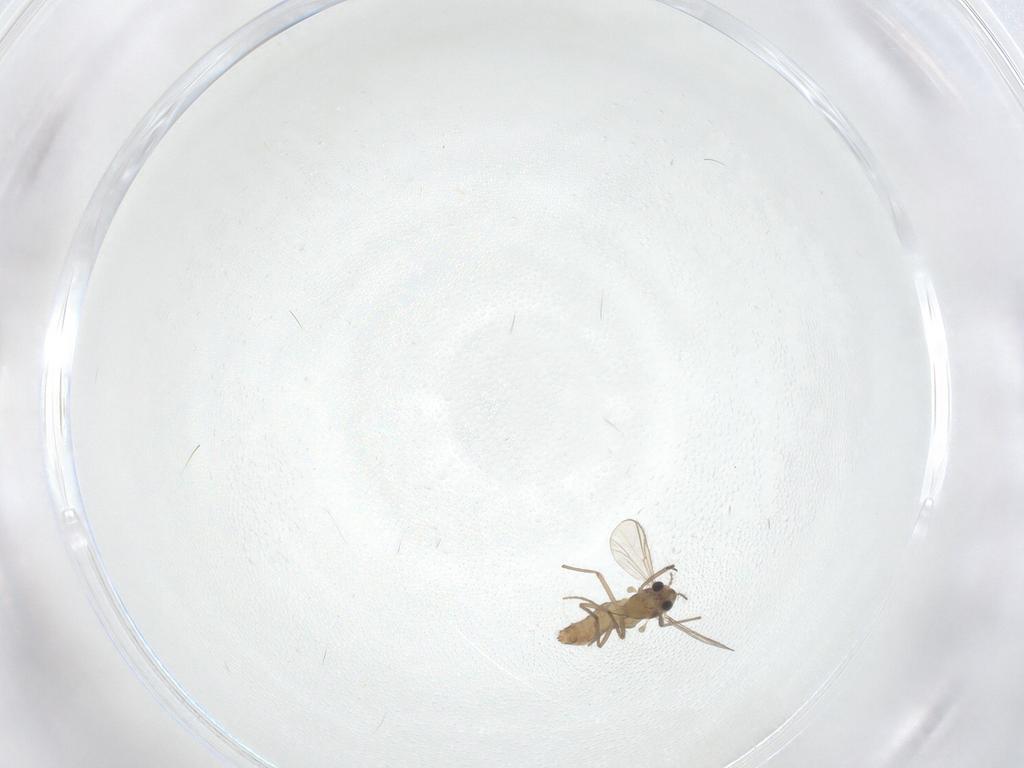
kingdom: Animalia
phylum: Arthropoda
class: Insecta
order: Diptera
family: Chironomidae
